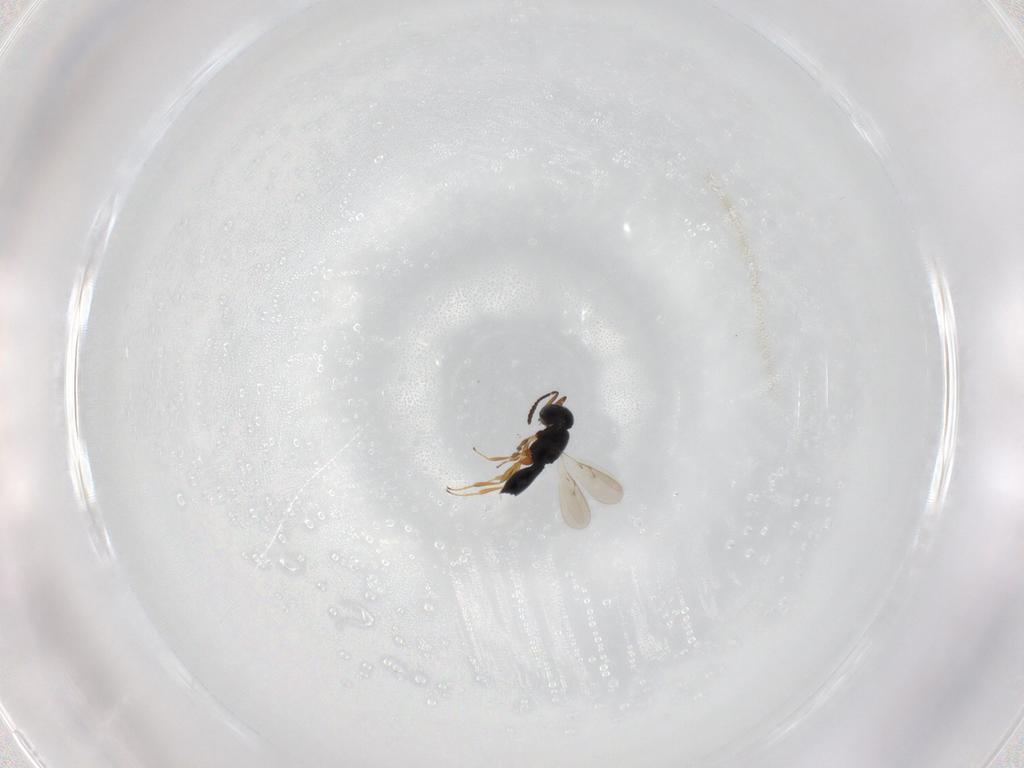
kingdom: Animalia
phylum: Arthropoda
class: Insecta
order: Hymenoptera
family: Scelionidae
